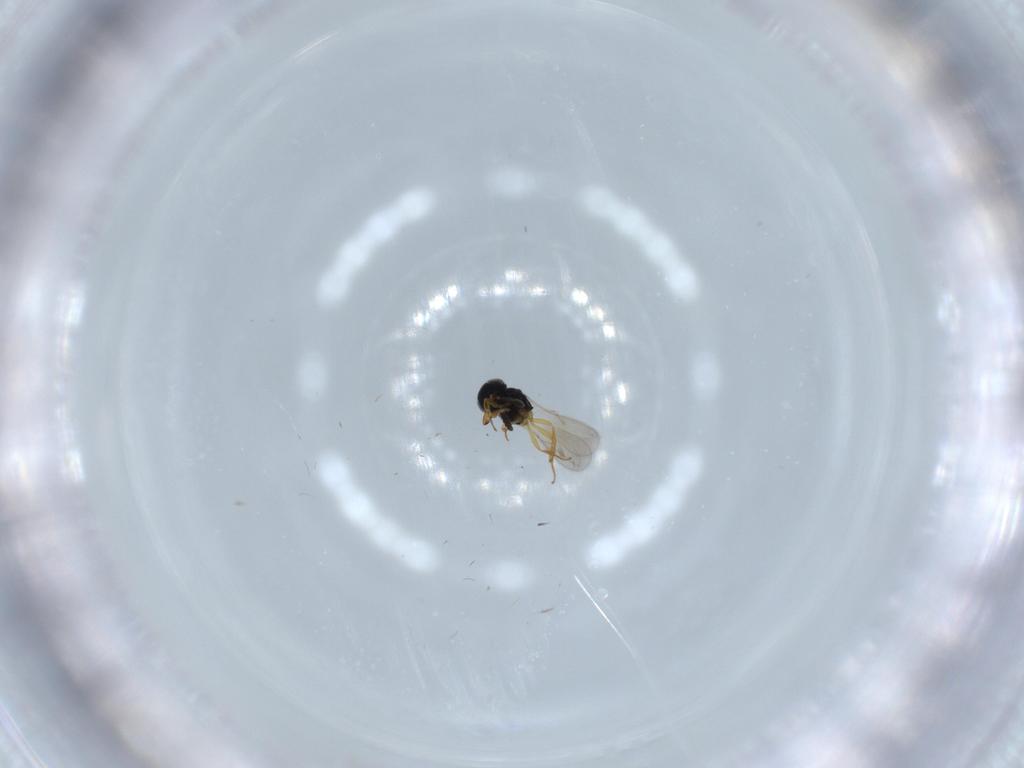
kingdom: Animalia
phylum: Arthropoda
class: Insecta
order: Hymenoptera
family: Scelionidae
